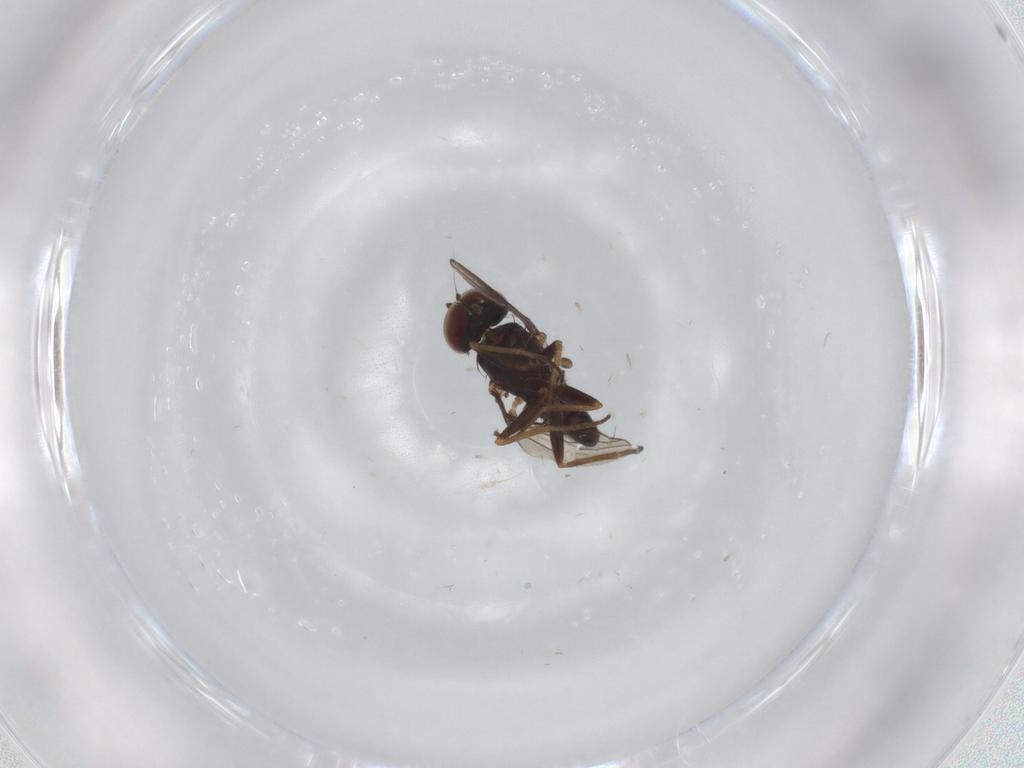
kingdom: Animalia
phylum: Arthropoda
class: Insecta
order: Diptera
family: Dolichopodidae
